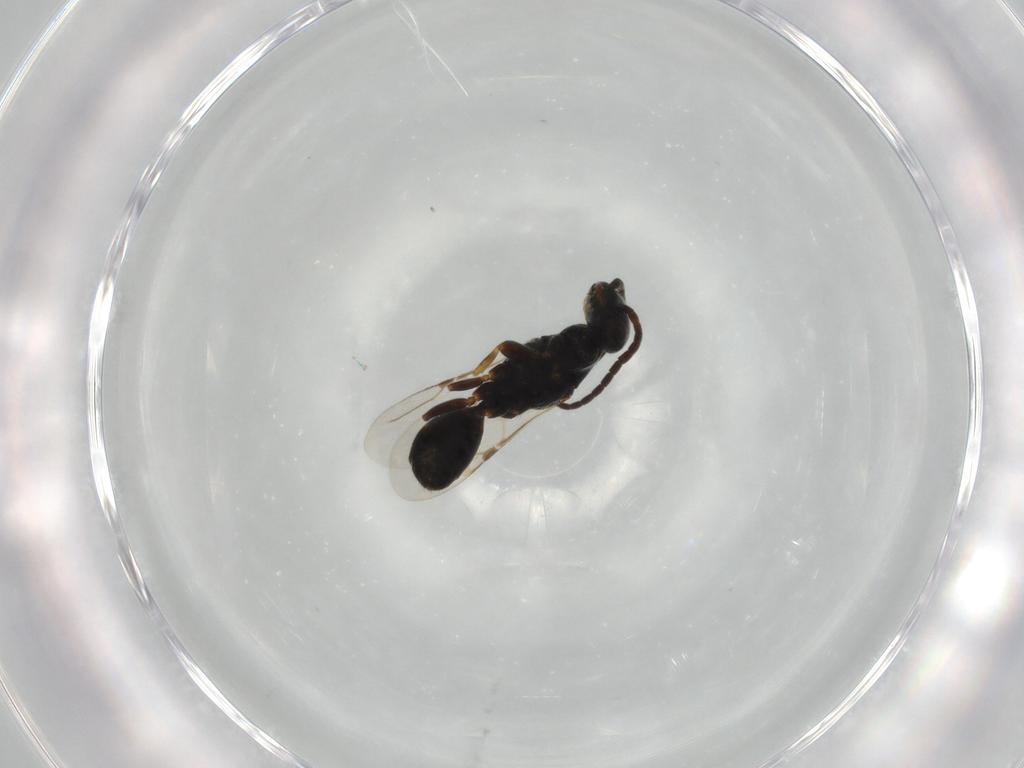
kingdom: Animalia
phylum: Arthropoda
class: Insecta
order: Hymenoptera
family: Bethylidae
